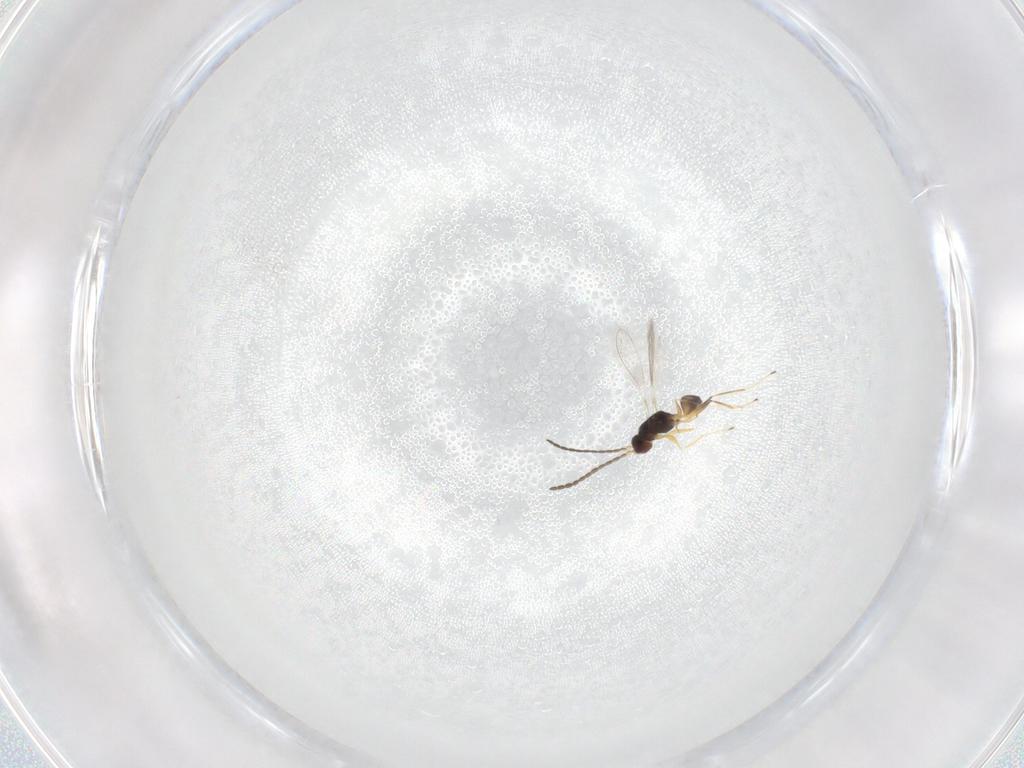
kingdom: Animalia
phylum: Arthropoda
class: Insecta
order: Hymenoptera
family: Mymaridae
